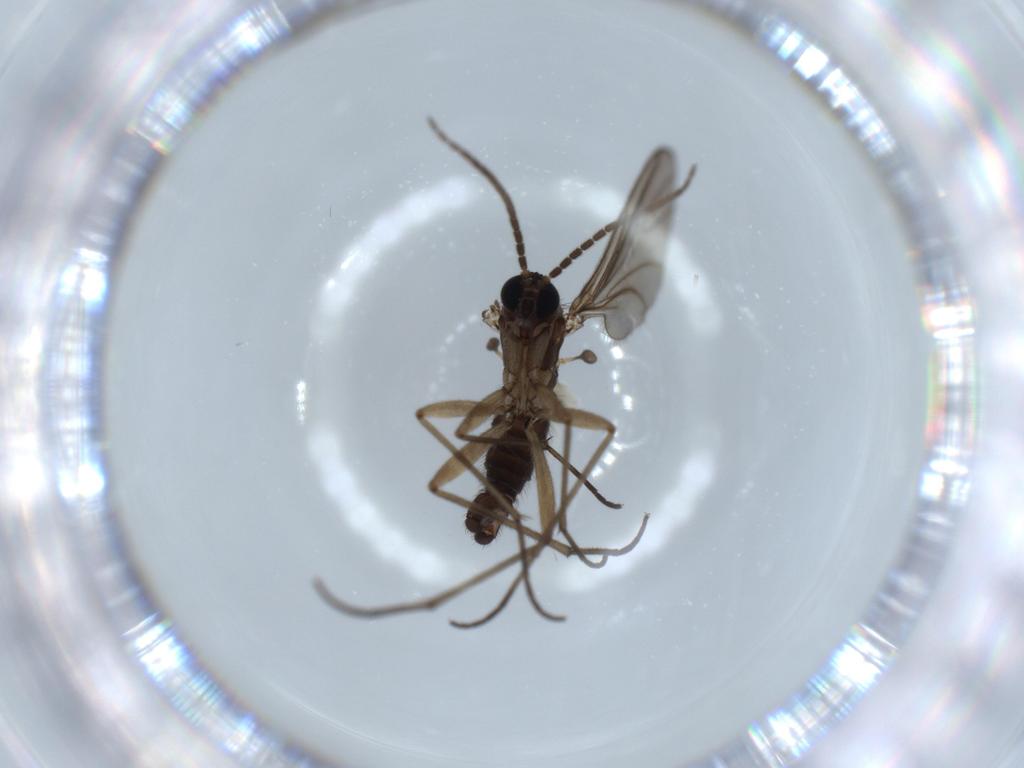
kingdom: Animalia
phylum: Arthropoda
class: Insecta
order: Diptera
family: Sciaridae
